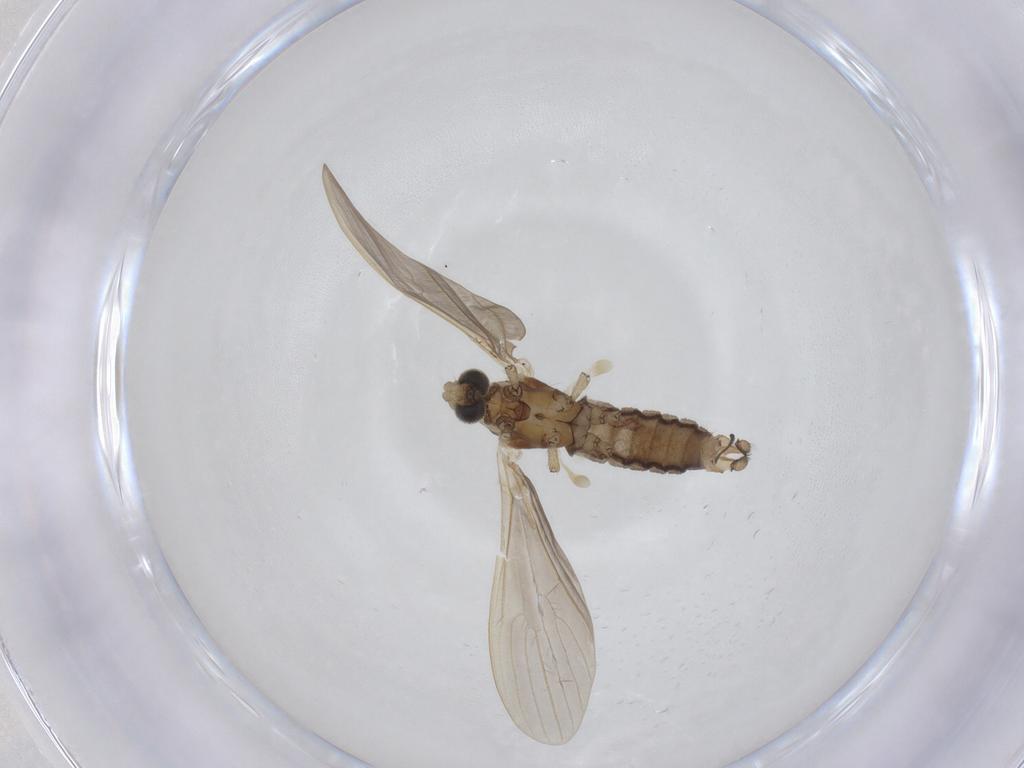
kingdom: Animalia
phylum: Arthropoda
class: Insecta
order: Diptera
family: Limoniidae
